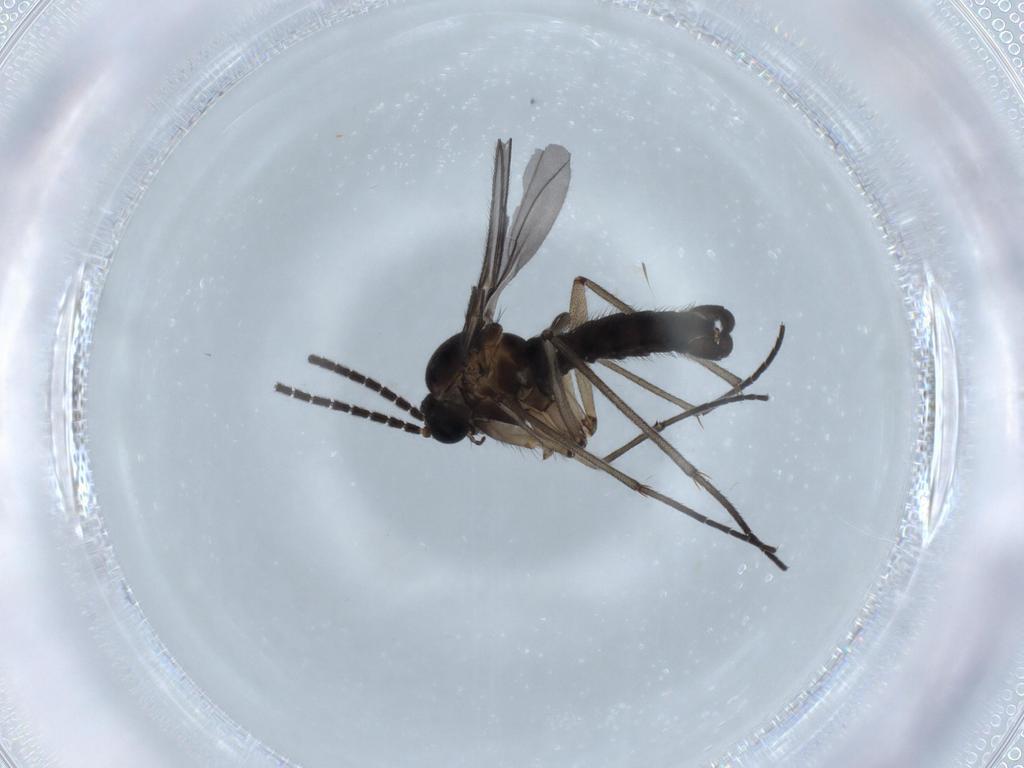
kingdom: Animalia
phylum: Arthropoda
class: Insecta
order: Diptera
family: Sciaridae
